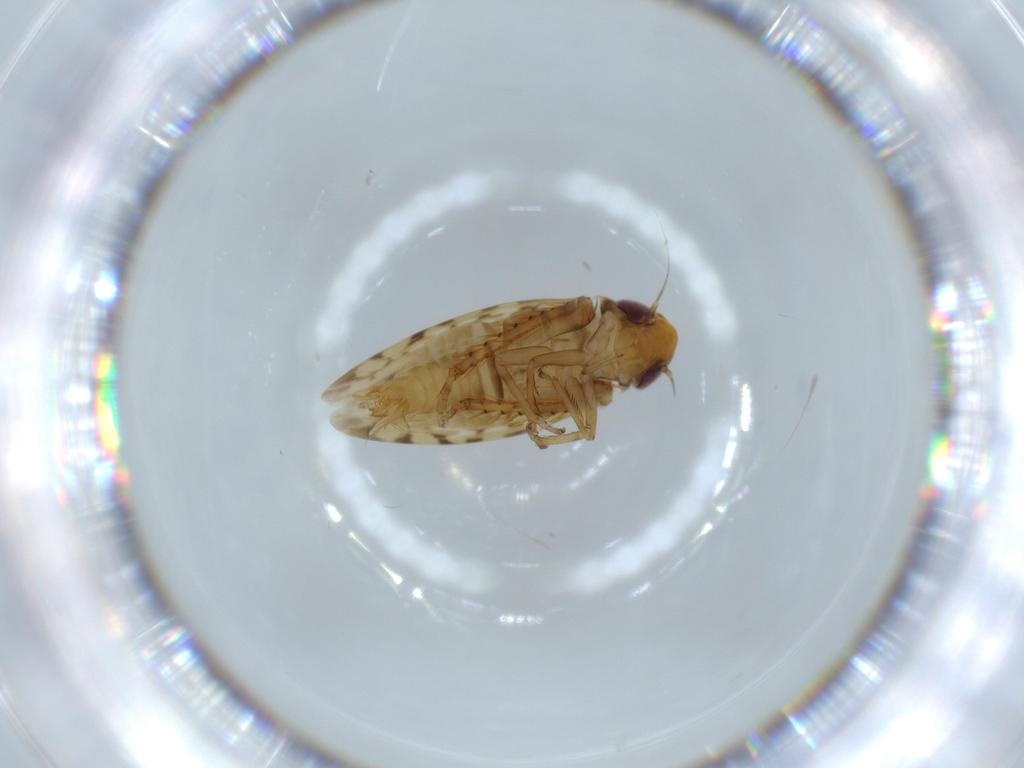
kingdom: Animalia
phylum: Arthropoda
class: Insecta
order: Hemiptera
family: Cicadellidae
